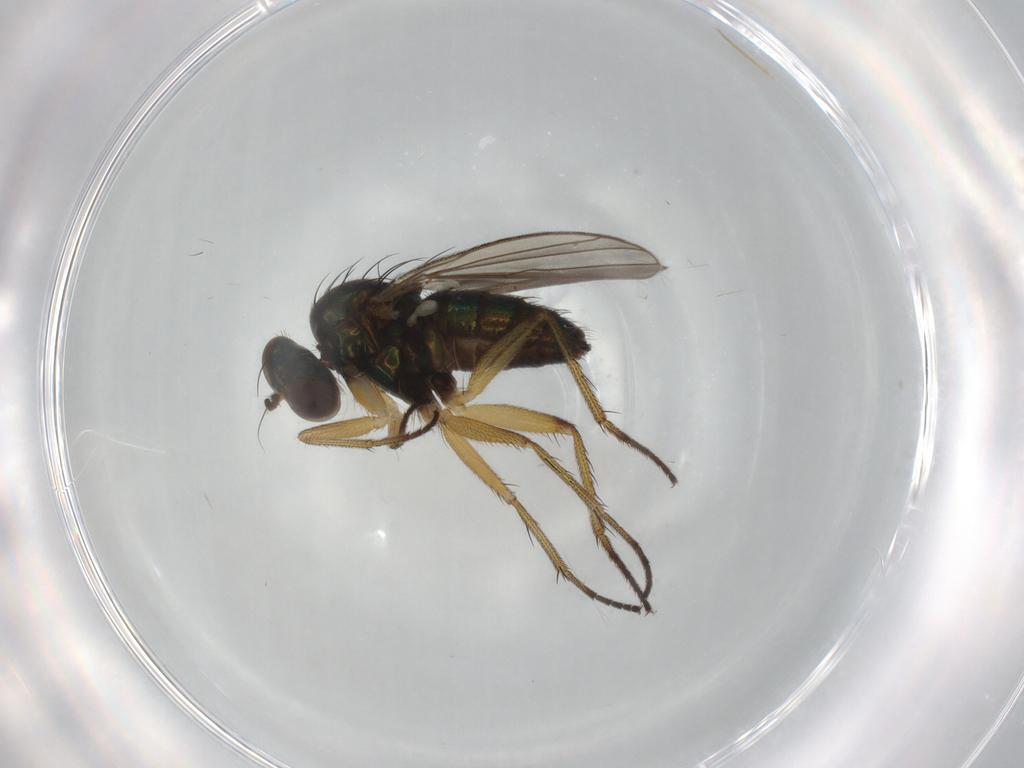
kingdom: Animalia
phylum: Arthropoda
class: Insecta
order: Diptera
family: Dolichopodidae
